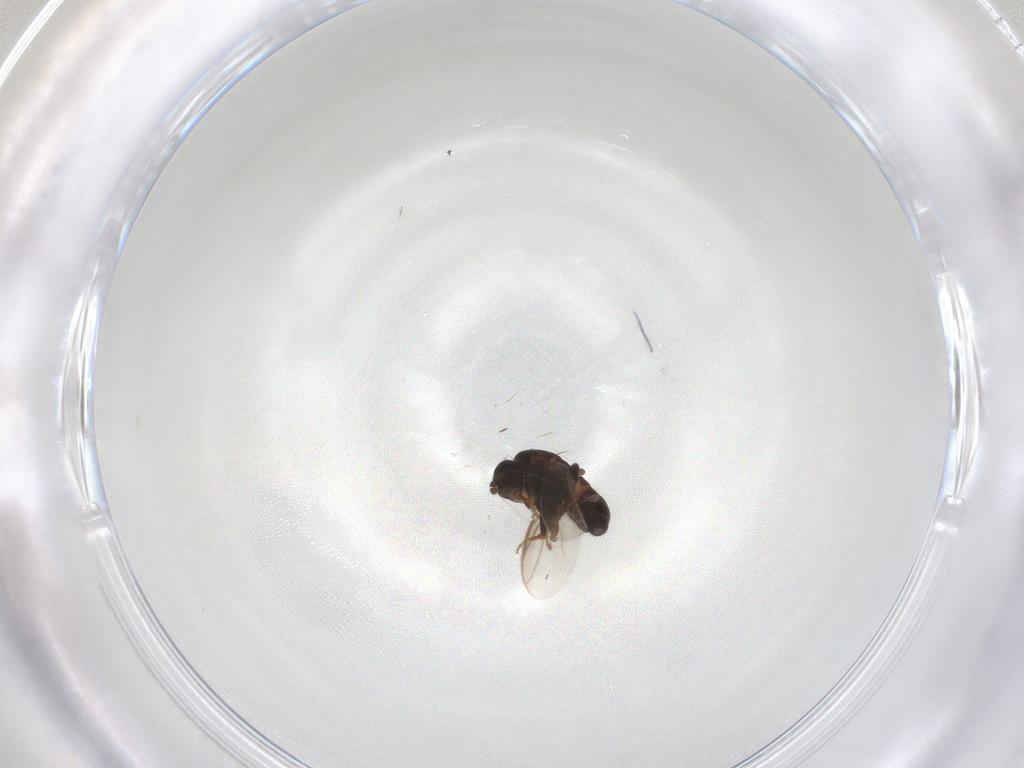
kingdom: Animalia
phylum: Arthropoda
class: Insecta
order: Diptera
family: Sphaeroceridae
